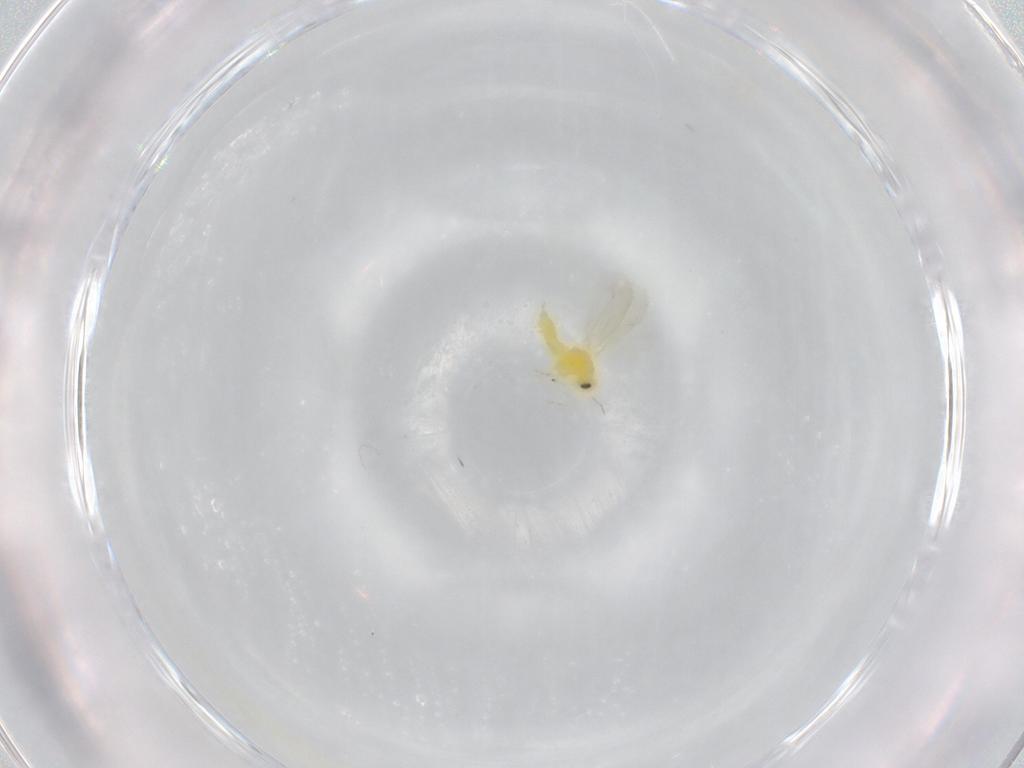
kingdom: Animalia
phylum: Arthropoda
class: Insecta
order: Hemiptera
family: Aleyrodidae
